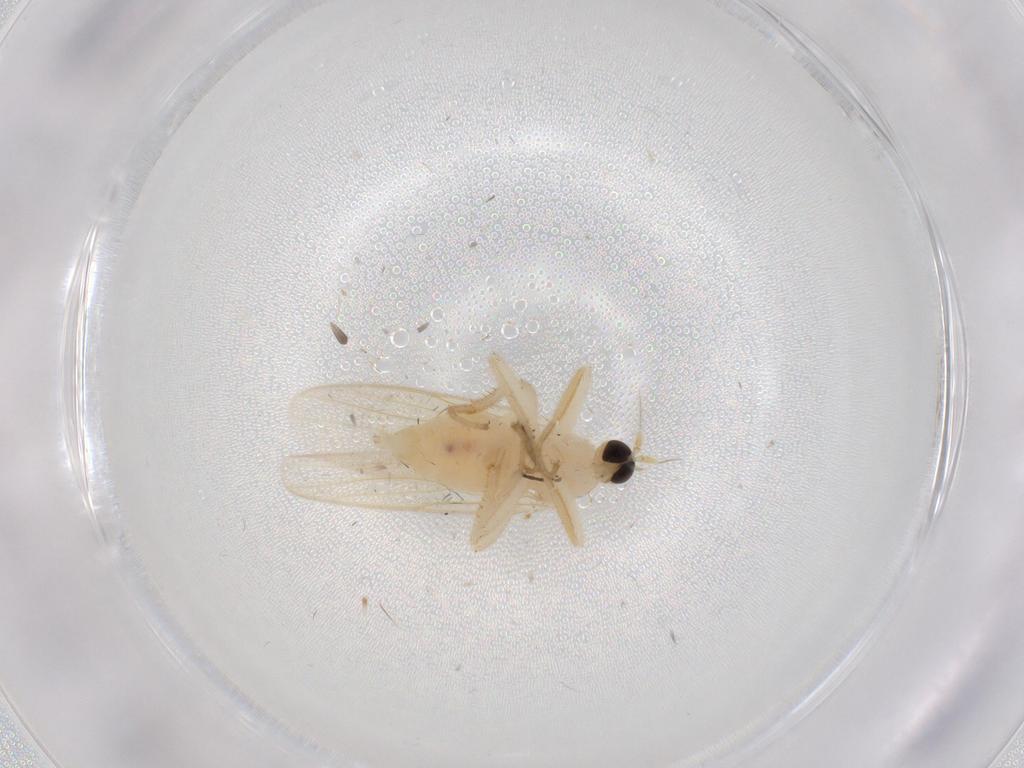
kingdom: Animalia
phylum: Arthropoda
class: Insecta
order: Diptera
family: Hybotidae
